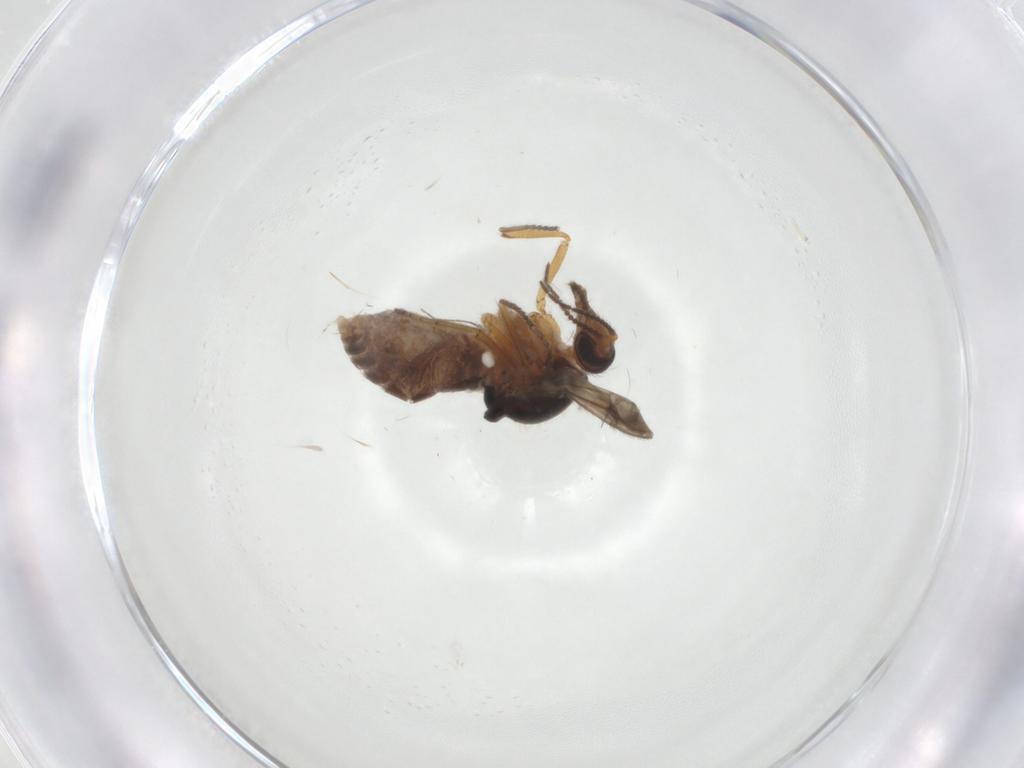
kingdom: Animalia
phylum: Arthropoda
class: Insecta
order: Diptera
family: Ceratopogonidae
